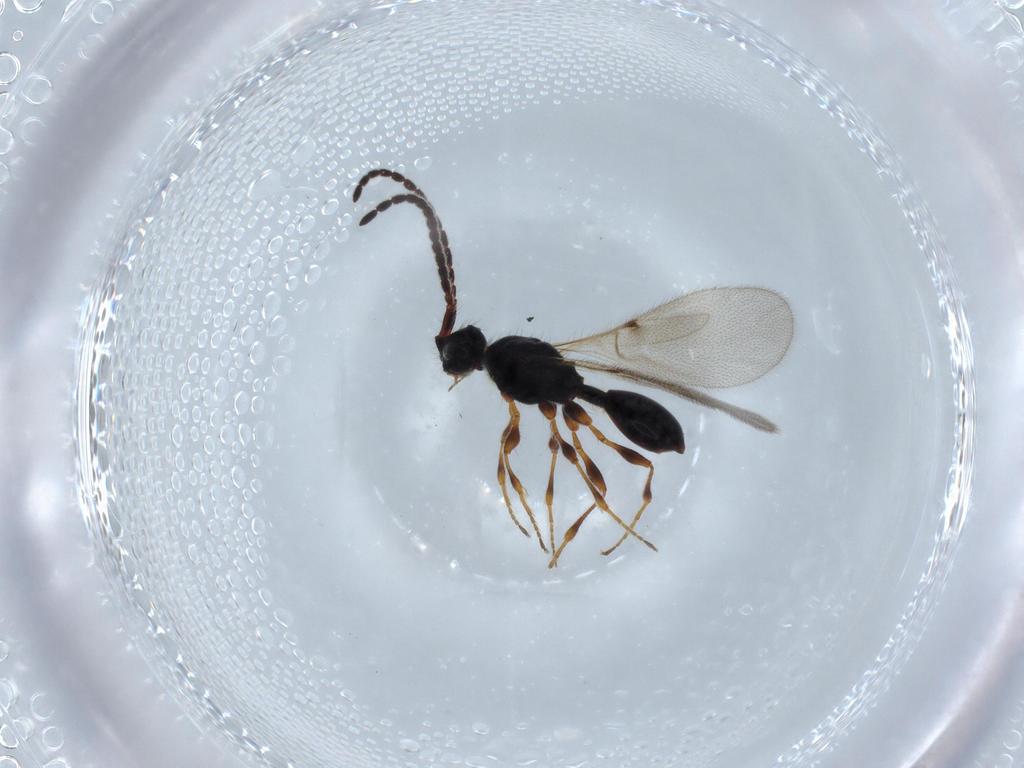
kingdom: Animalia
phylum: Arthropoda
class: Insecta
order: Hymenoptera
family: Diapriidae
